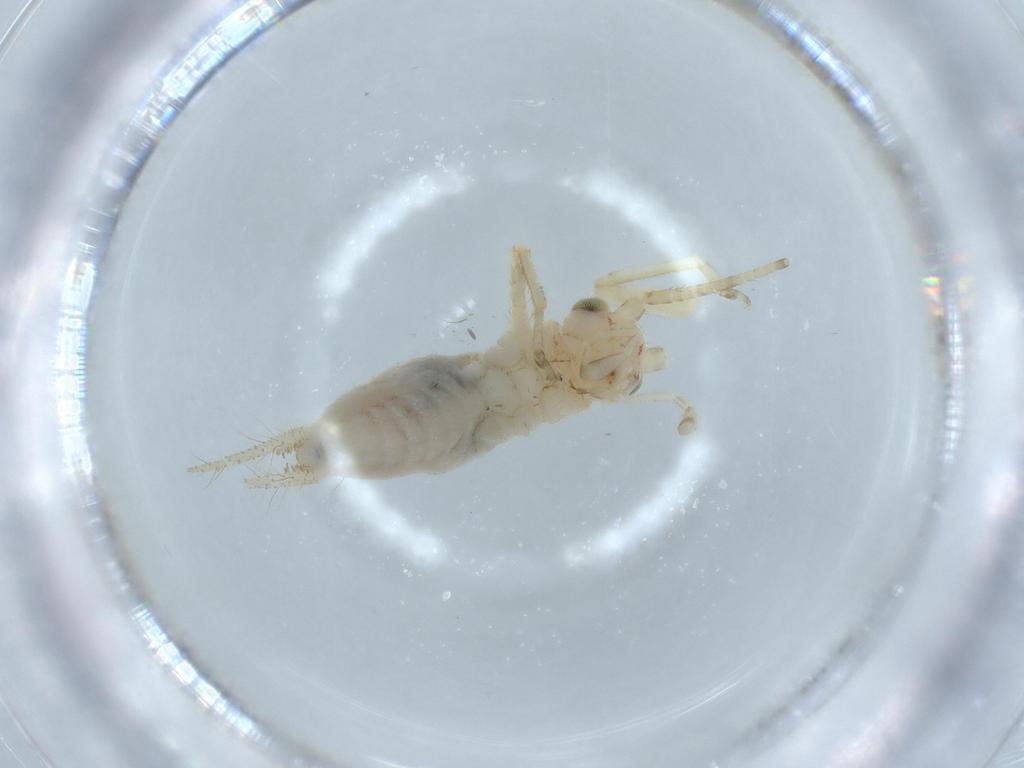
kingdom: Animalia
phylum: Arthropoda
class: Insecta
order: Orthoptera
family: Trigonidiidae
